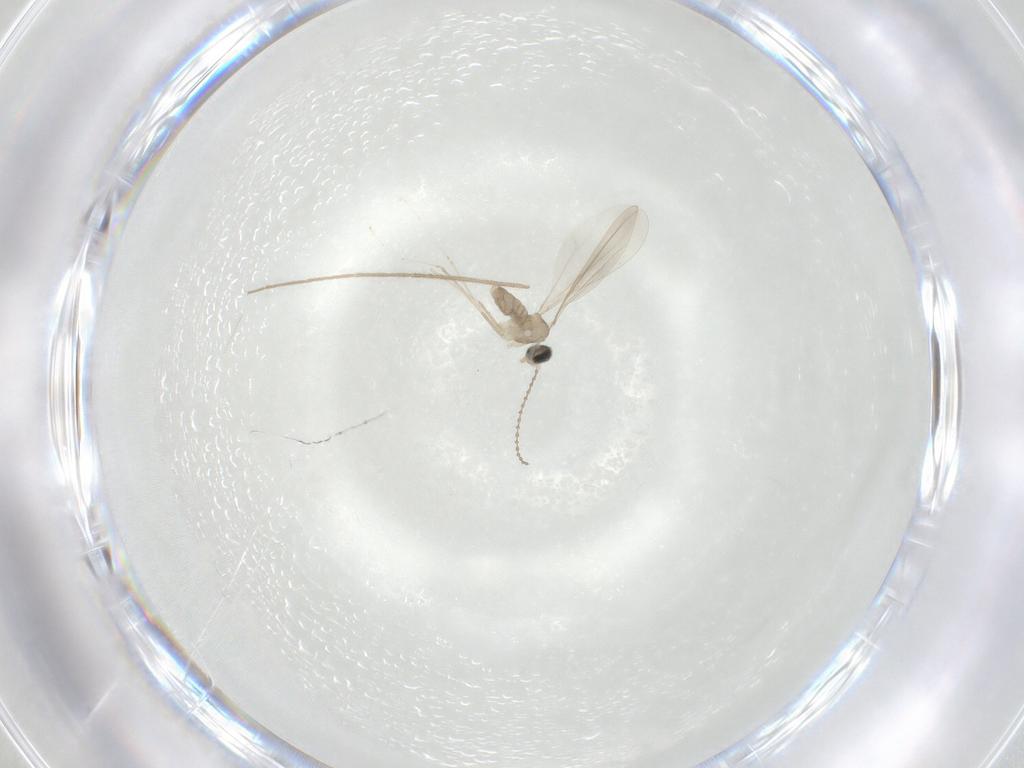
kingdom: Animalia
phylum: Arthropoda
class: Insecta
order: Diptera
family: Cecidomyiidae
